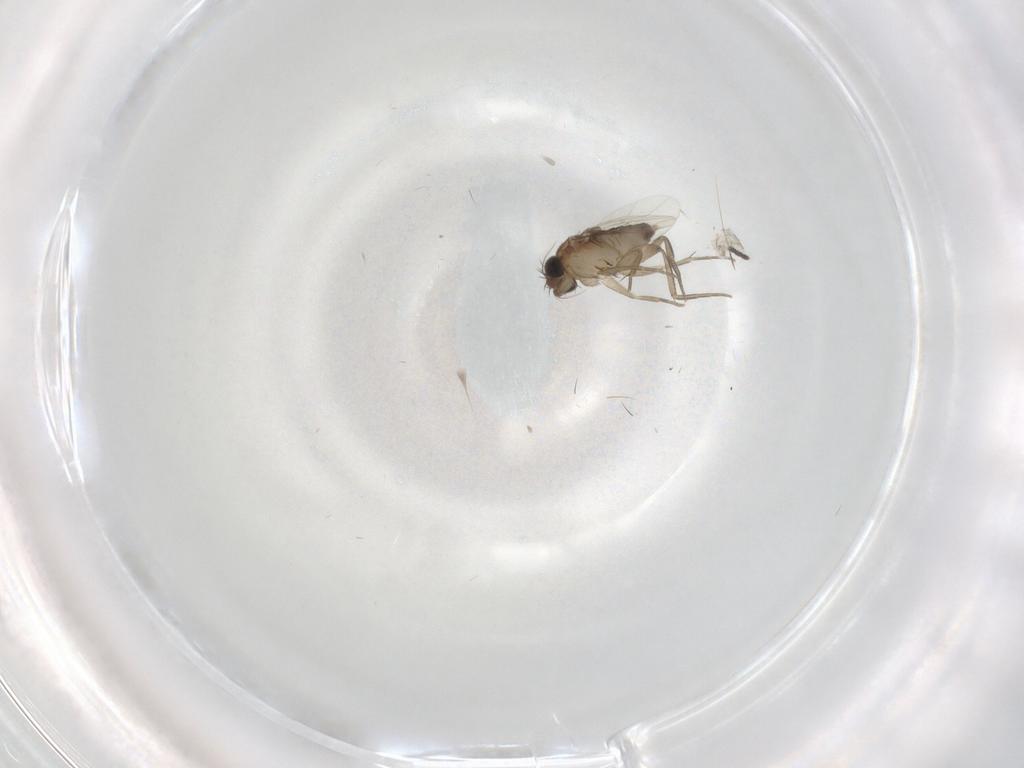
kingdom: Animalia
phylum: Arthropoda
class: Insecta
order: Diptera
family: Phoridae
